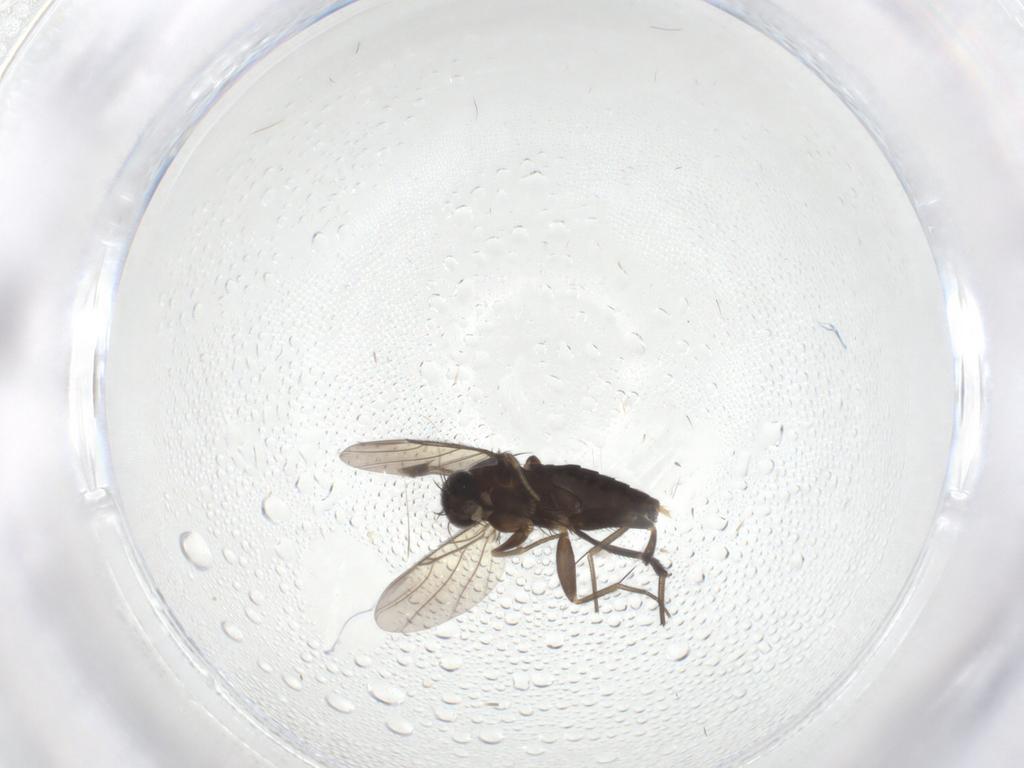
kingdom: Animalia
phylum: Arthropoda
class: Insecta
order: Diptera
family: Phoridae
